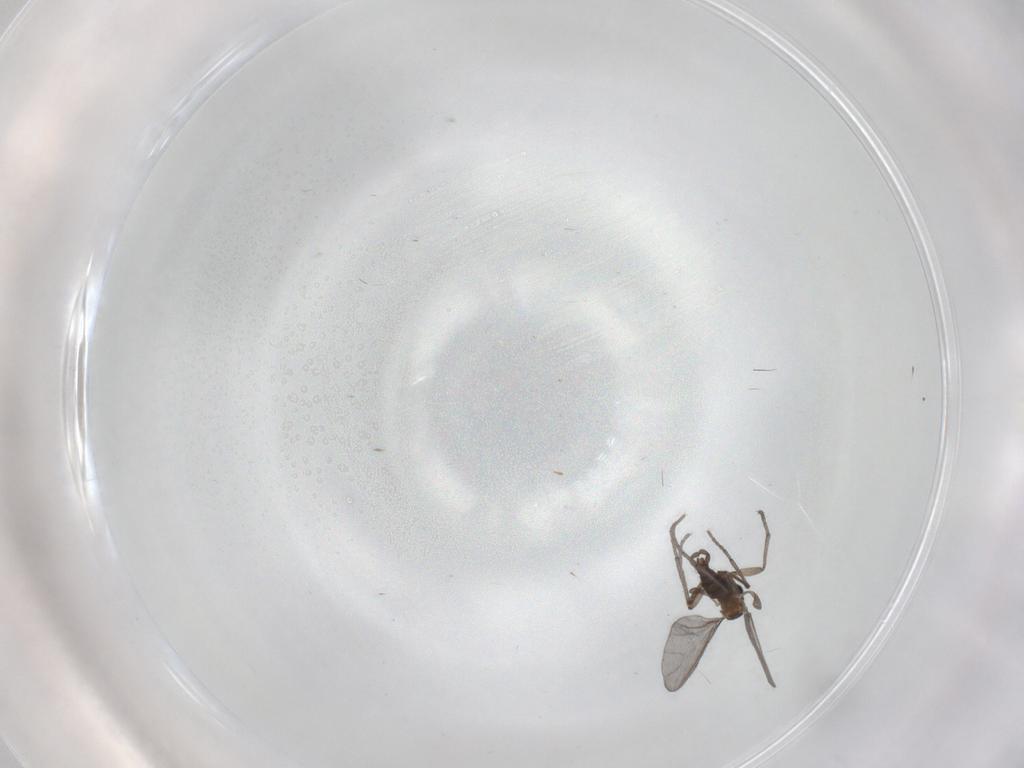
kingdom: Animalia
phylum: Arthropoda
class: Insecta
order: Diptera
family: Sciaridae
